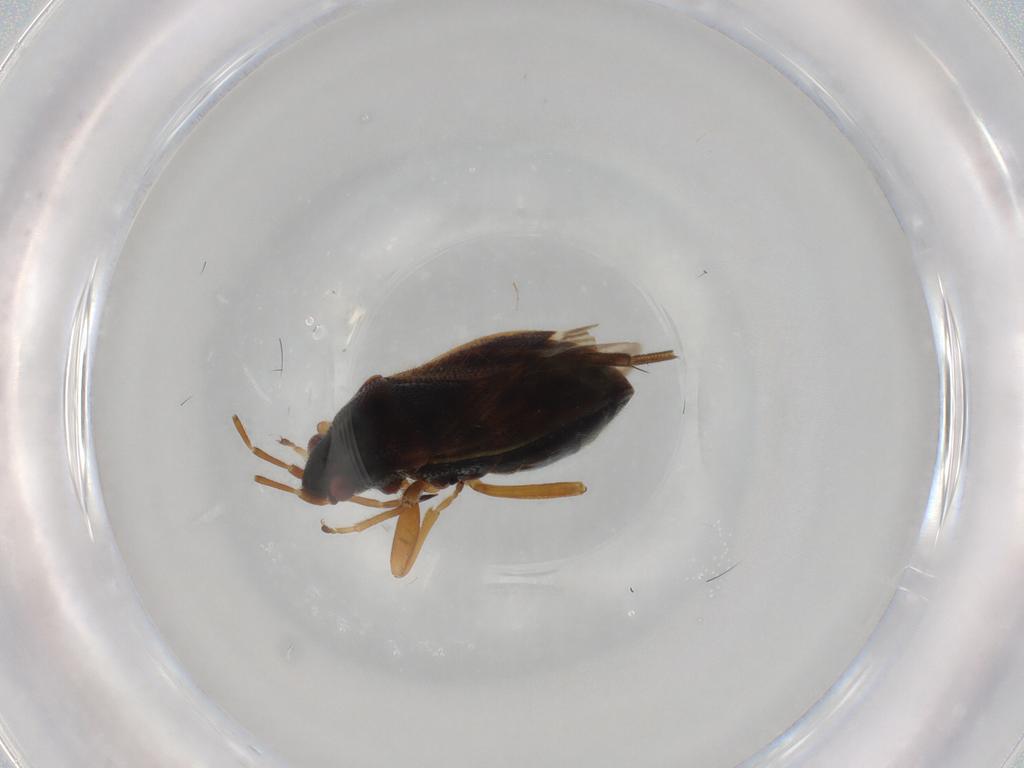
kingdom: Animalia
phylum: Arthropoda
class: Insecta
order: Hemiptera
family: Rhyparochromidae
